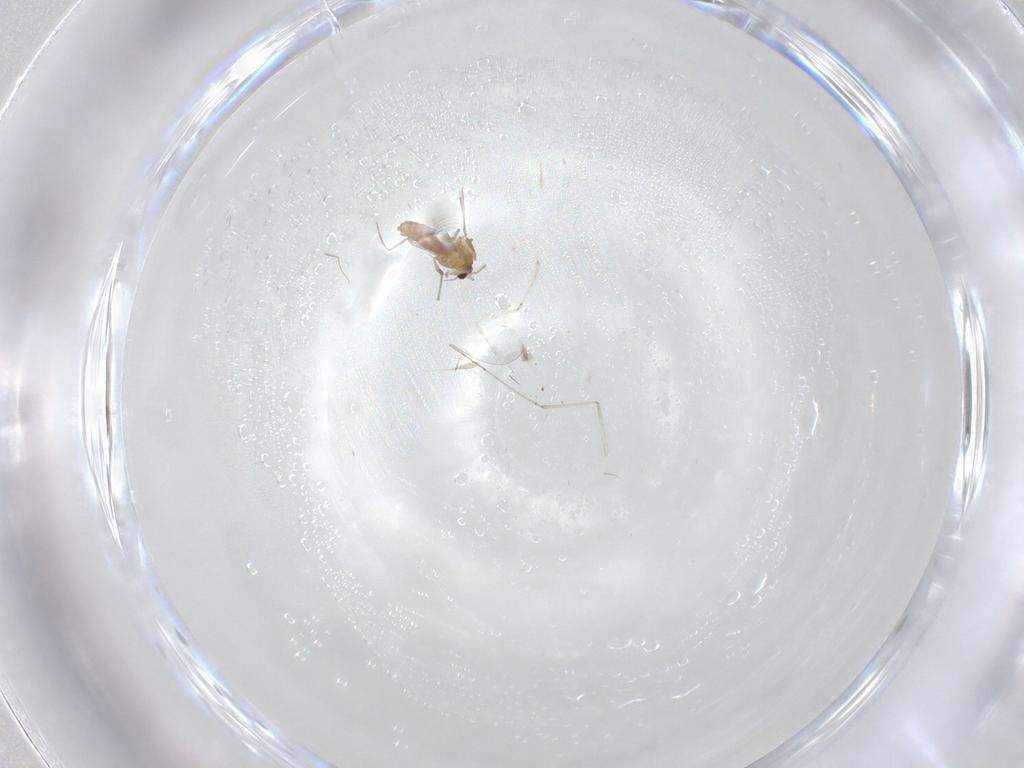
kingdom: Animalia
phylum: Arthropoda
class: Insecta
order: Diptera
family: Chironomidae
